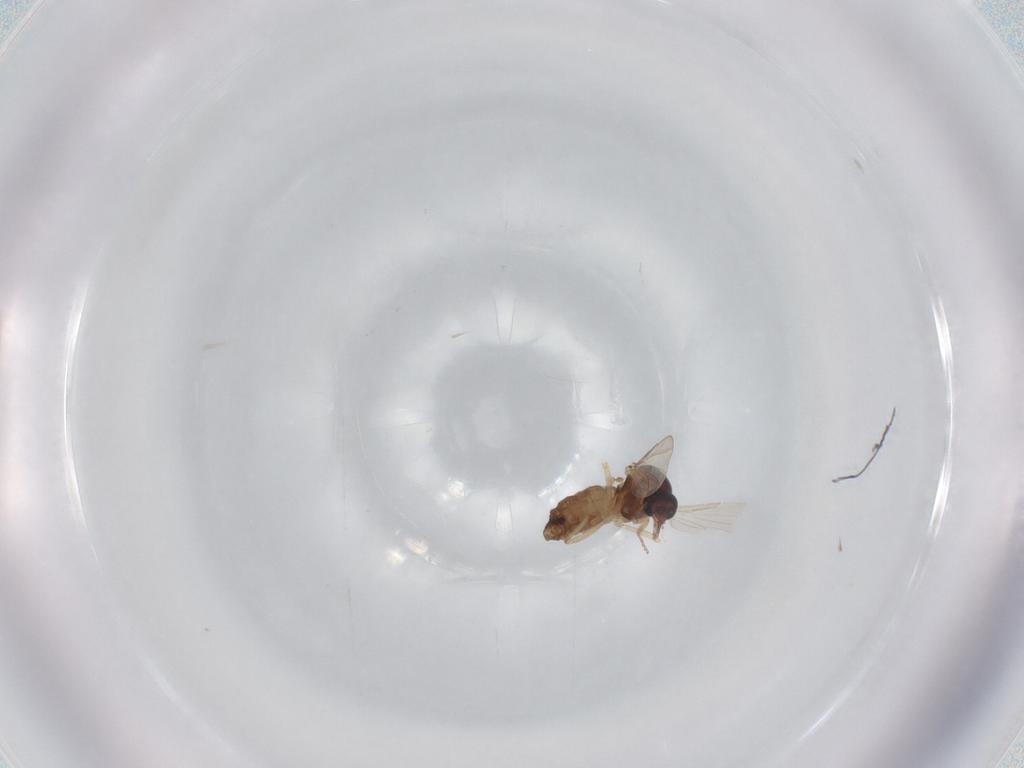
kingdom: Animalia
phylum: Arthropoda
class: Insecta
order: Diptera
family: Ceratopogonidae
